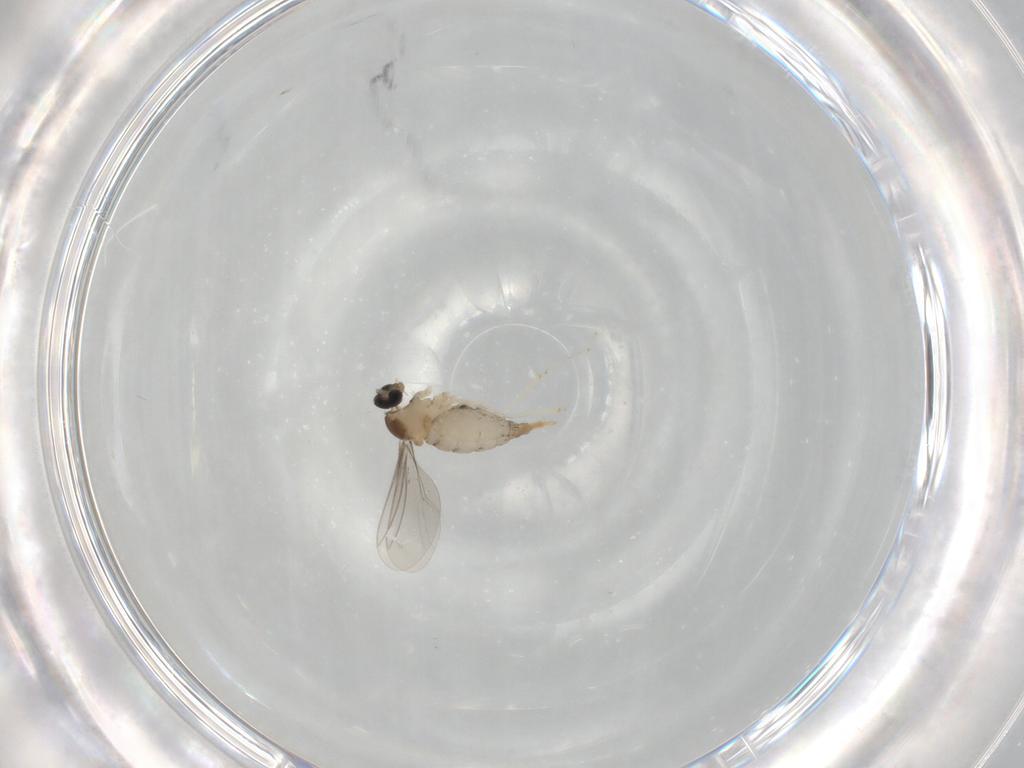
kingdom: Animalia
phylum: Arthropoda
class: Insecta
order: Diptera
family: Cecidomyiidae
